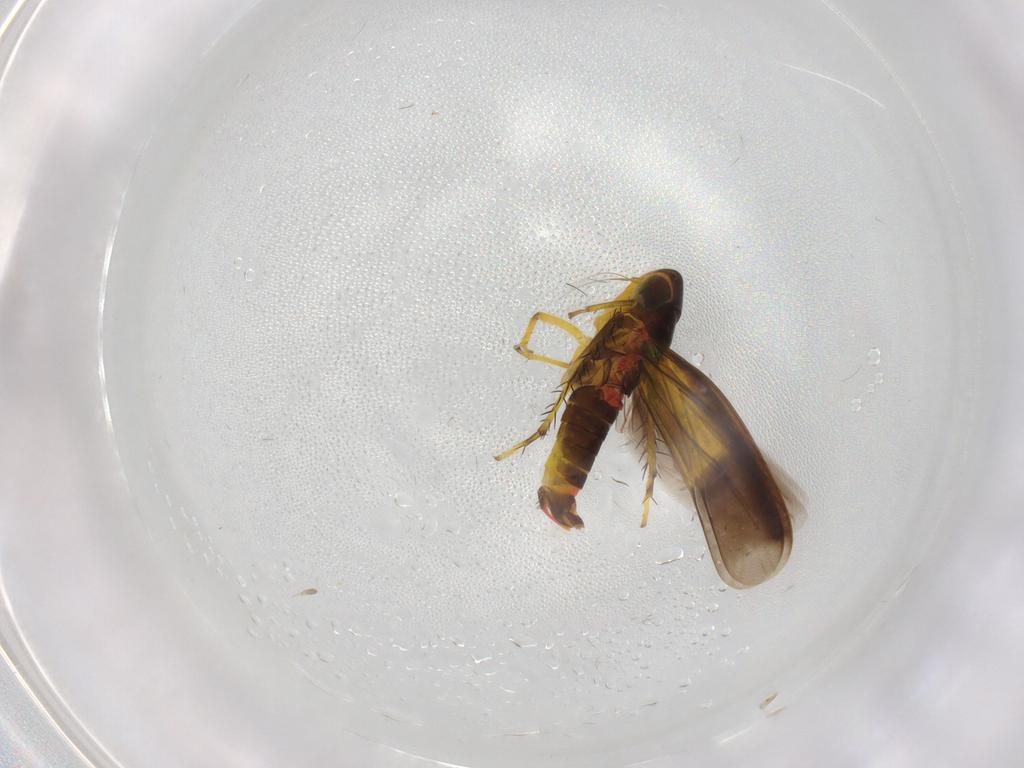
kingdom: Animalia
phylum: Arthropoda
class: Insecta
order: Hemiptera
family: Cicadellidae
